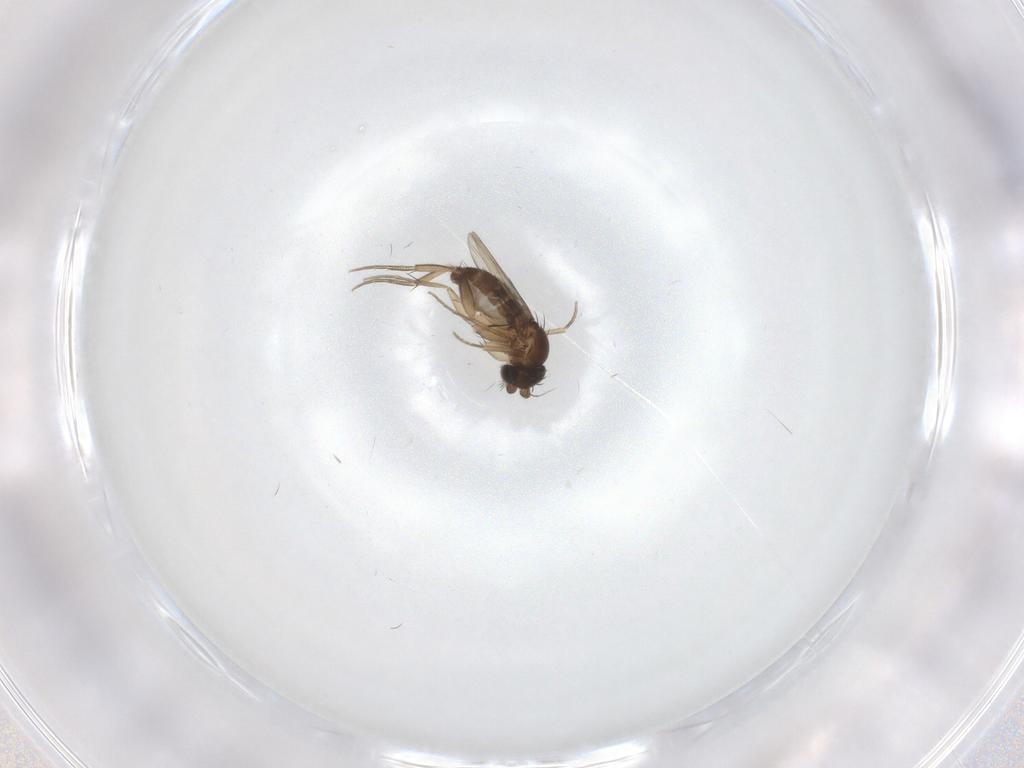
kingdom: Animalia
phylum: Arthropoda
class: Insecta
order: Diptera
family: Phoridae
